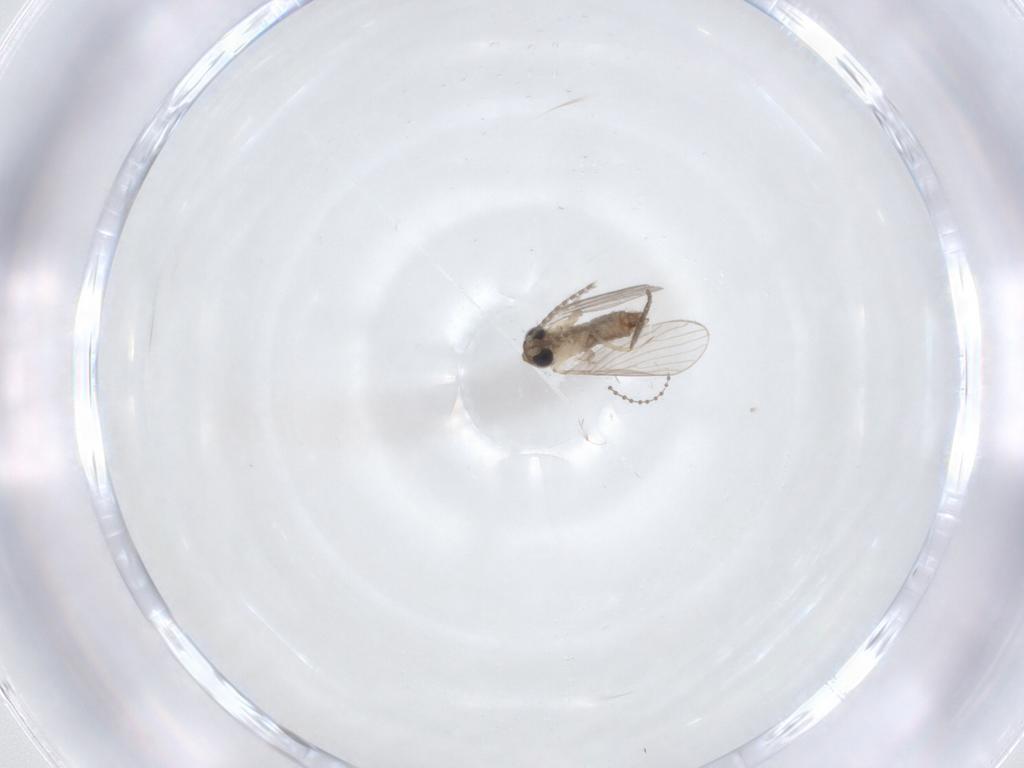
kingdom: Animalia
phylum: Arthropoda
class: Insecta
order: Diptera
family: Cecidomyiidae
